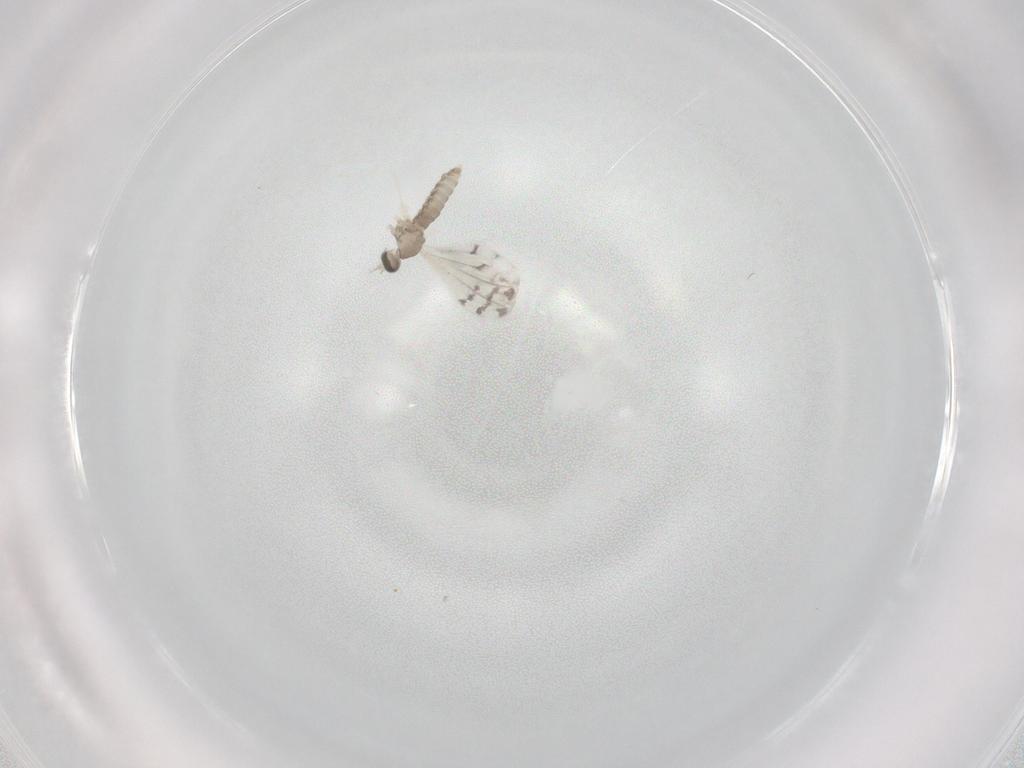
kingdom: Animalia
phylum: Arthropoda
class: Insecta
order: Diptera
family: Cecidomyiidae
